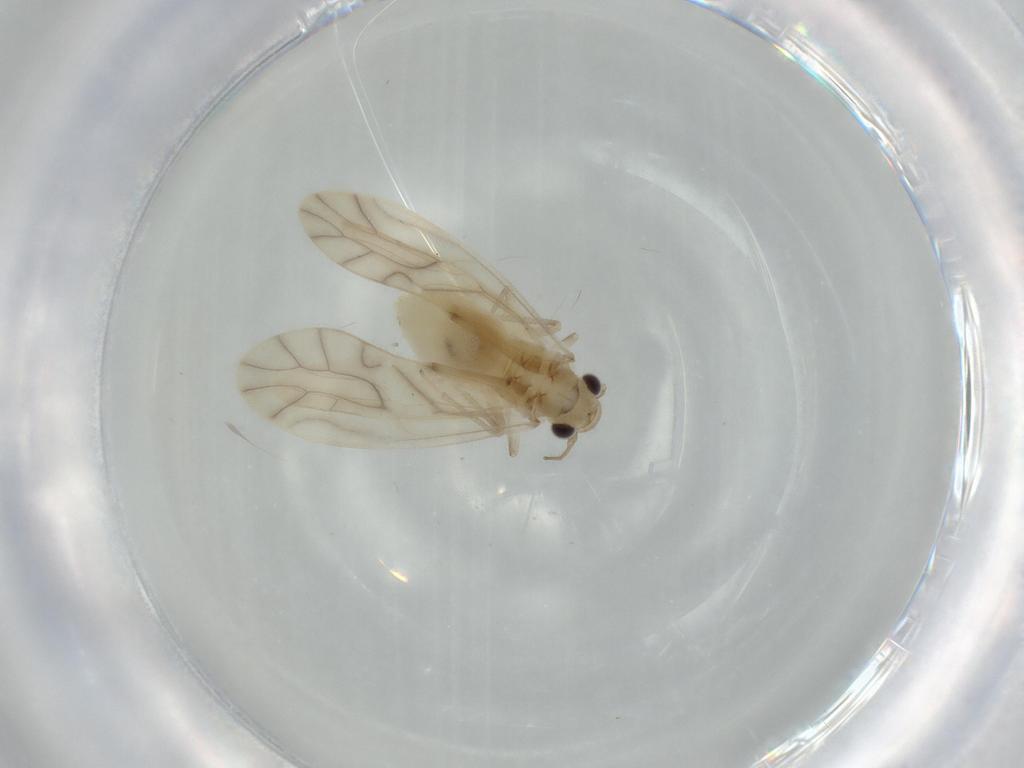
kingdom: Animalia
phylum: Arthropoda
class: Insecta
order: Psocodea
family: Caeciliusidae
